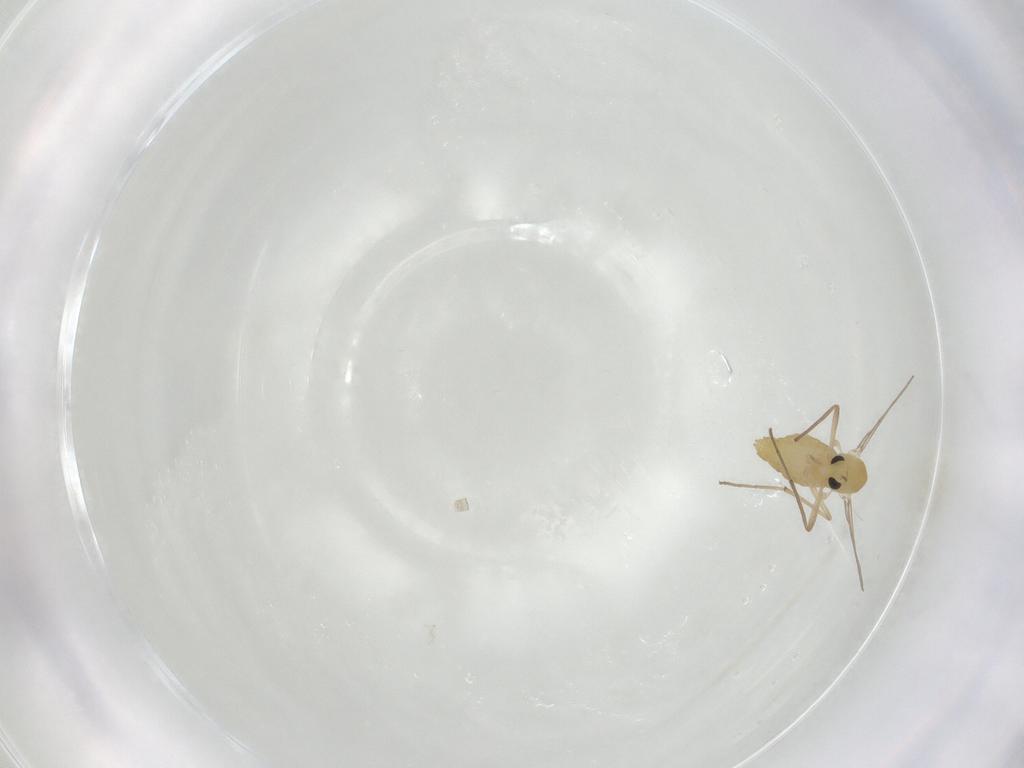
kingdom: Animalia
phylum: Arthropoda
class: Insecta
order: Diptera
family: Chironomidae
